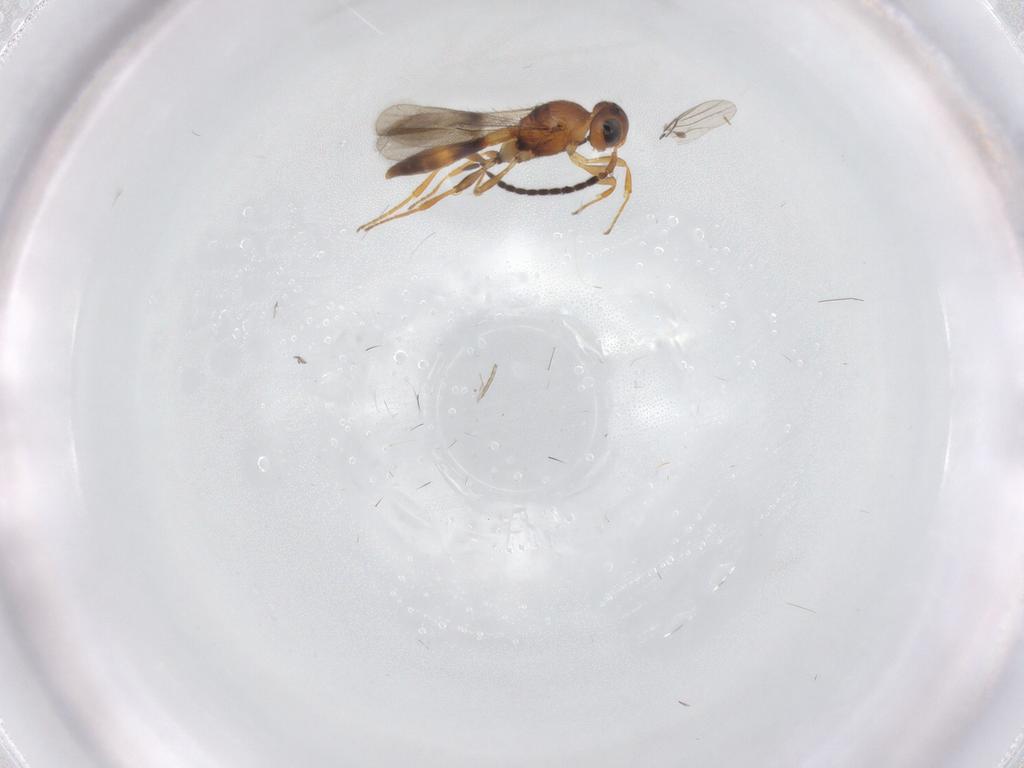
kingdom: Animalia
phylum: Arthropoda
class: Insecta
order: Hymenoptera
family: Scelionidae
